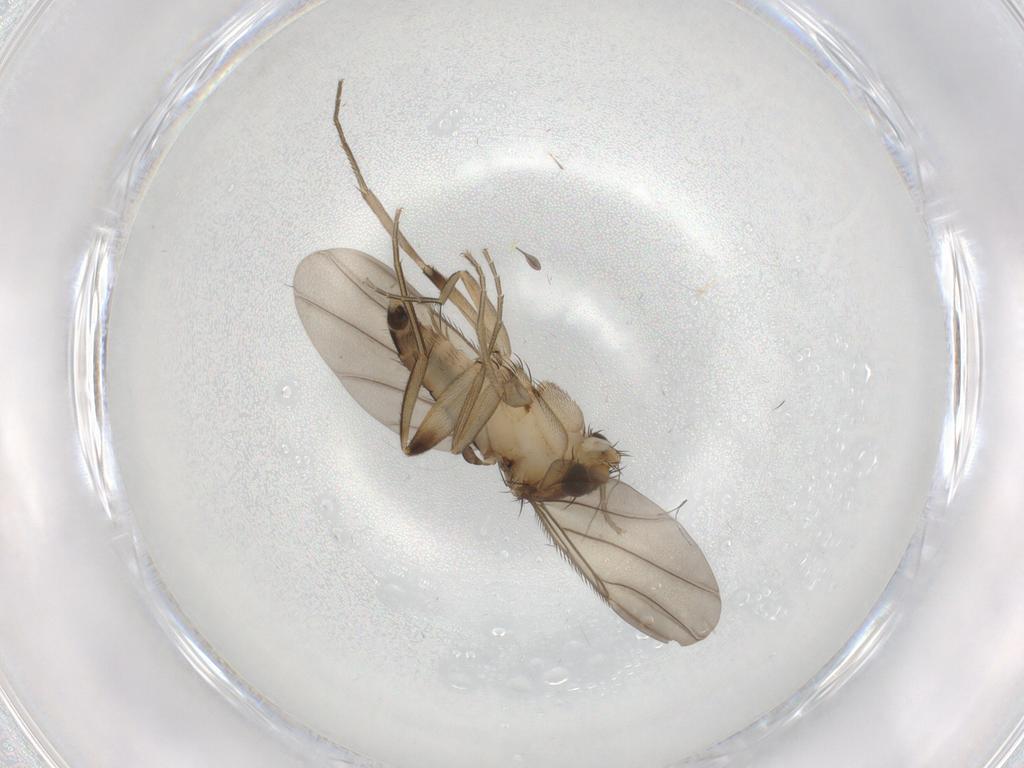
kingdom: Animalia
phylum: Arthropoda
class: Insecta
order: Diptera
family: Phoridae
